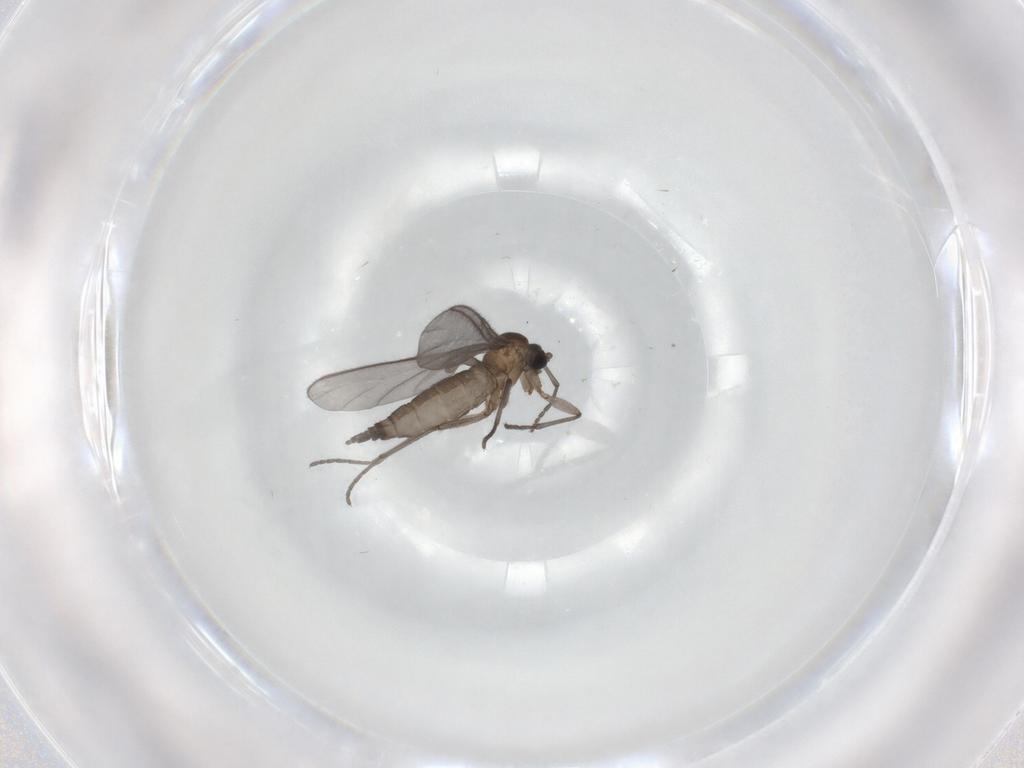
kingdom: Animalia
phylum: Arthropoda
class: Insecta
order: Diptera
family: Sciaridae
